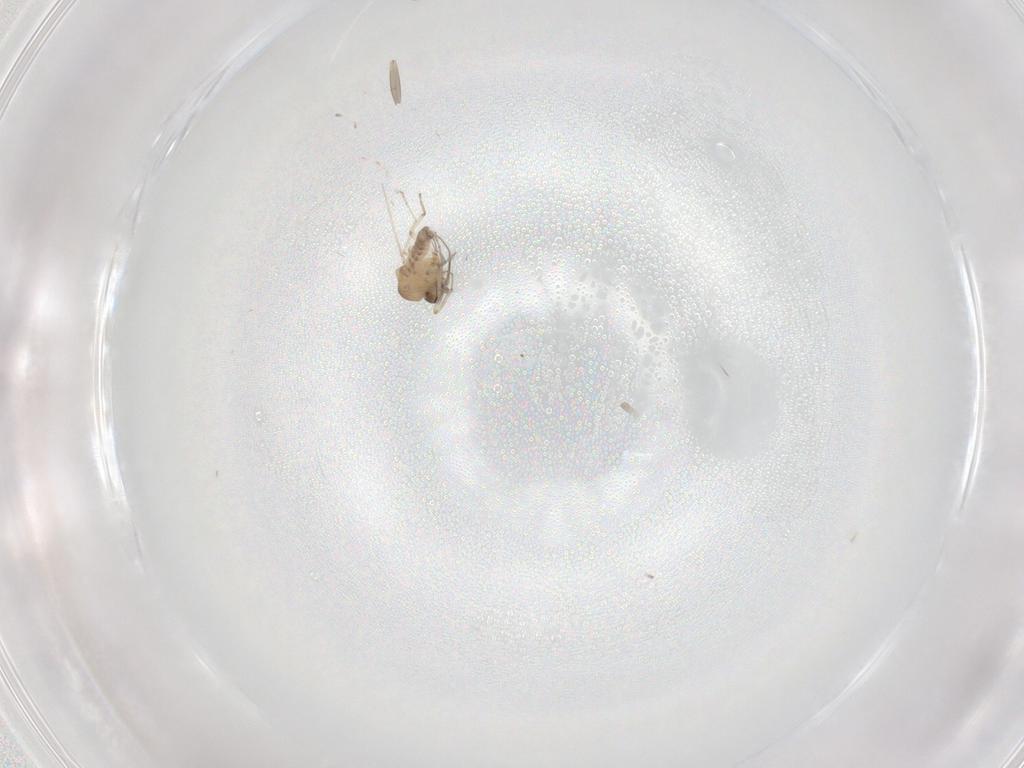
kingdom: Animalia
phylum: Arthropoda
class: Insecta
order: Diptera
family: Ceratopogonidae
